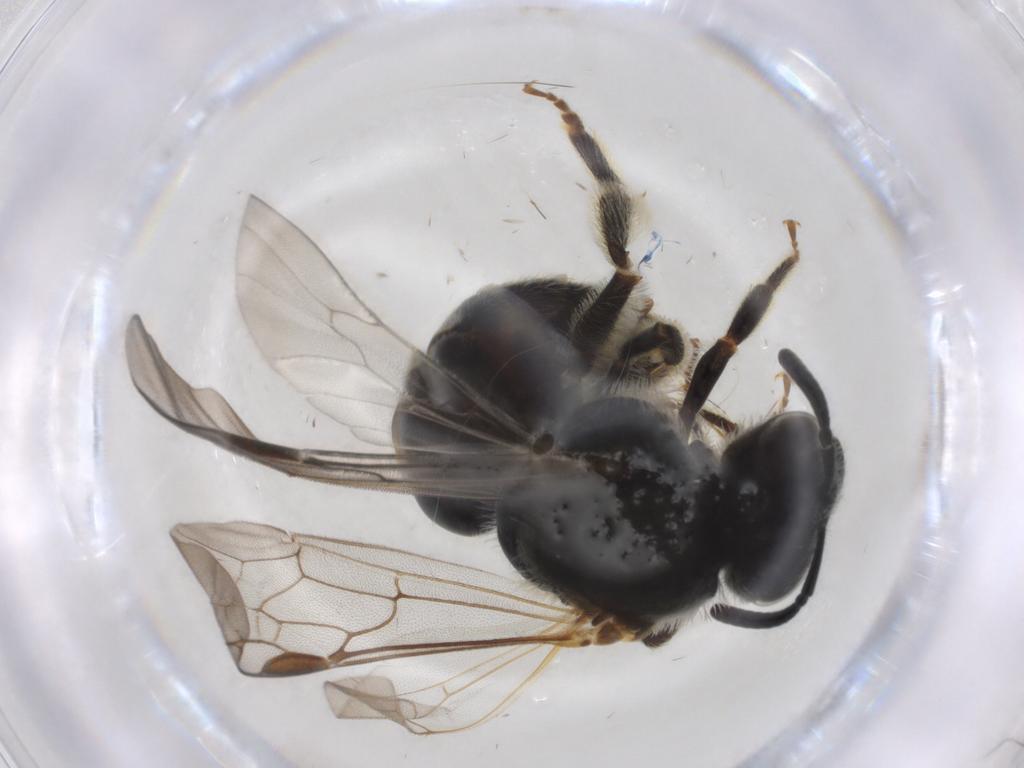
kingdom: Animalia
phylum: Arthropoda
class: Insecta
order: Hymenoptera
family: Halictidae
